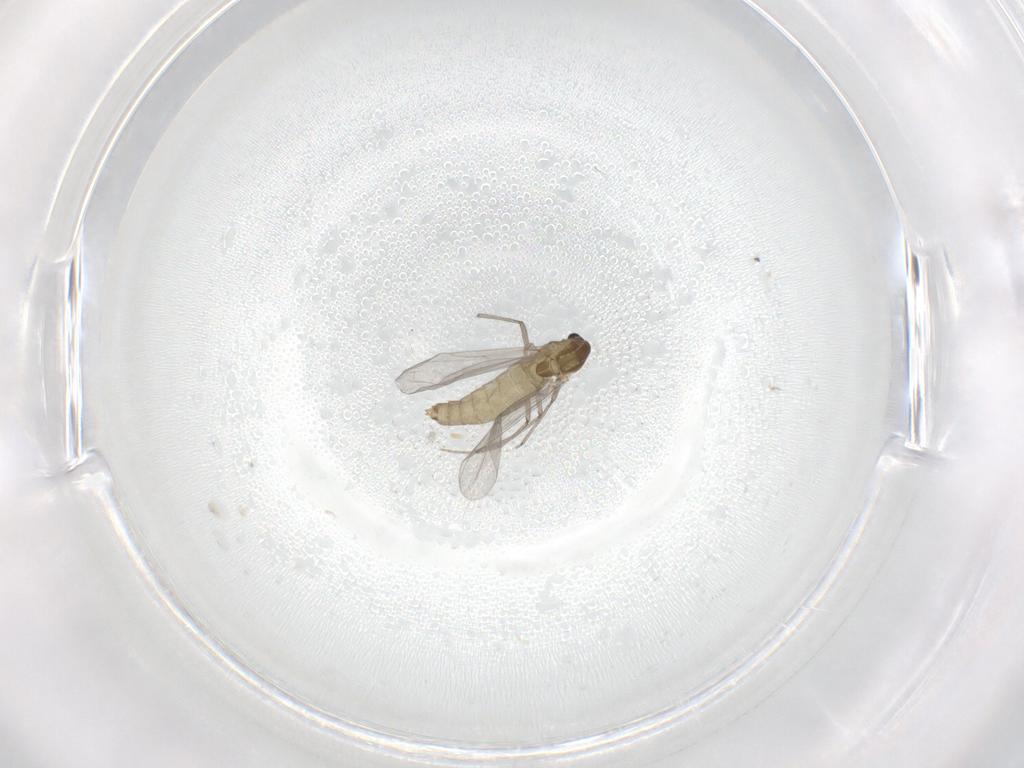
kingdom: Animalia
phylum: Arthropoda
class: Insecta
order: Diptera
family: Chironomidae
